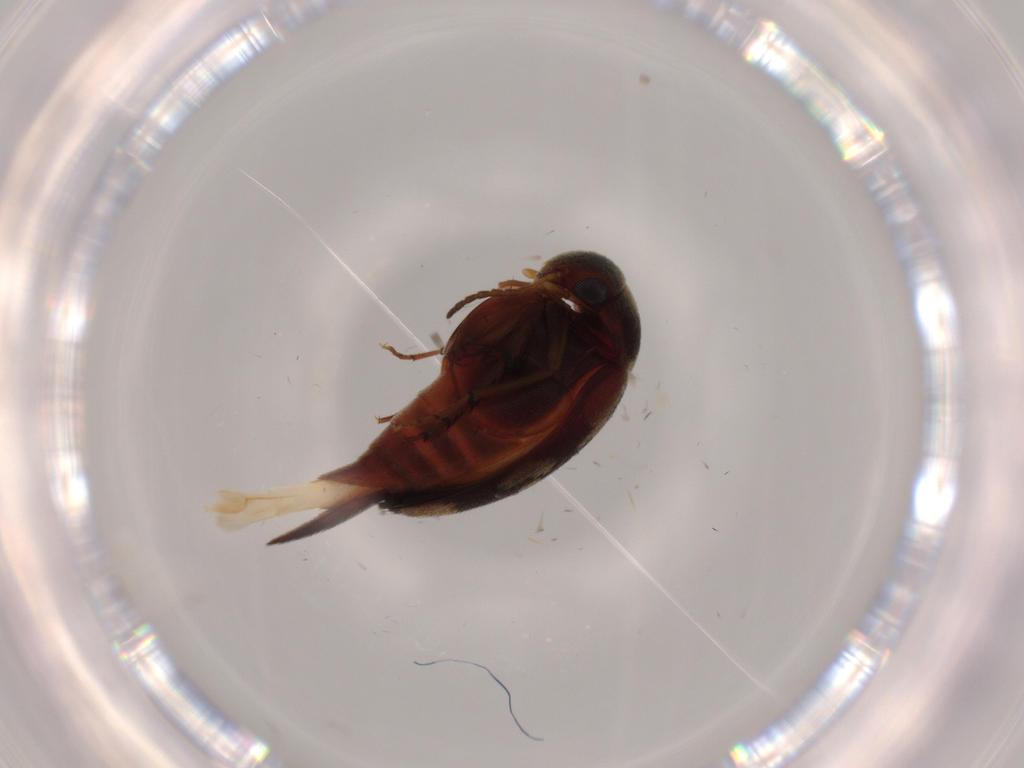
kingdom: Animalia
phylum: Arthropoda
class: Insecta
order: Coleoptera
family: Mordellidae
